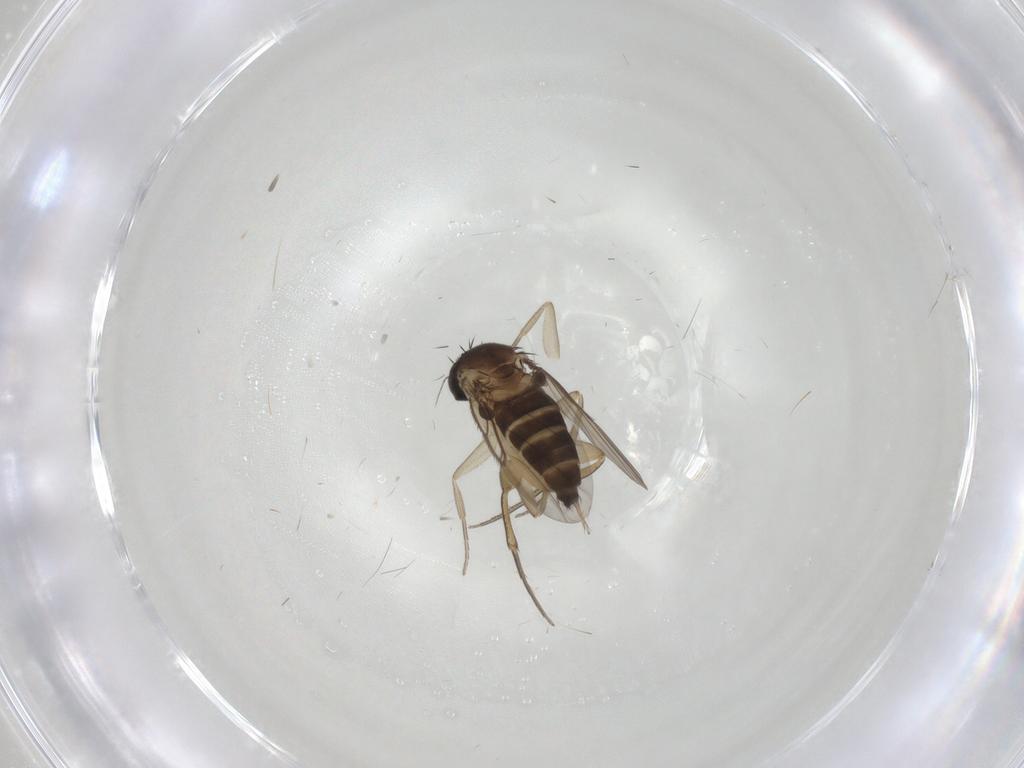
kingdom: Animalia
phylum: Arthropoda
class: Insecta
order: Diptera
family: Phoridae
